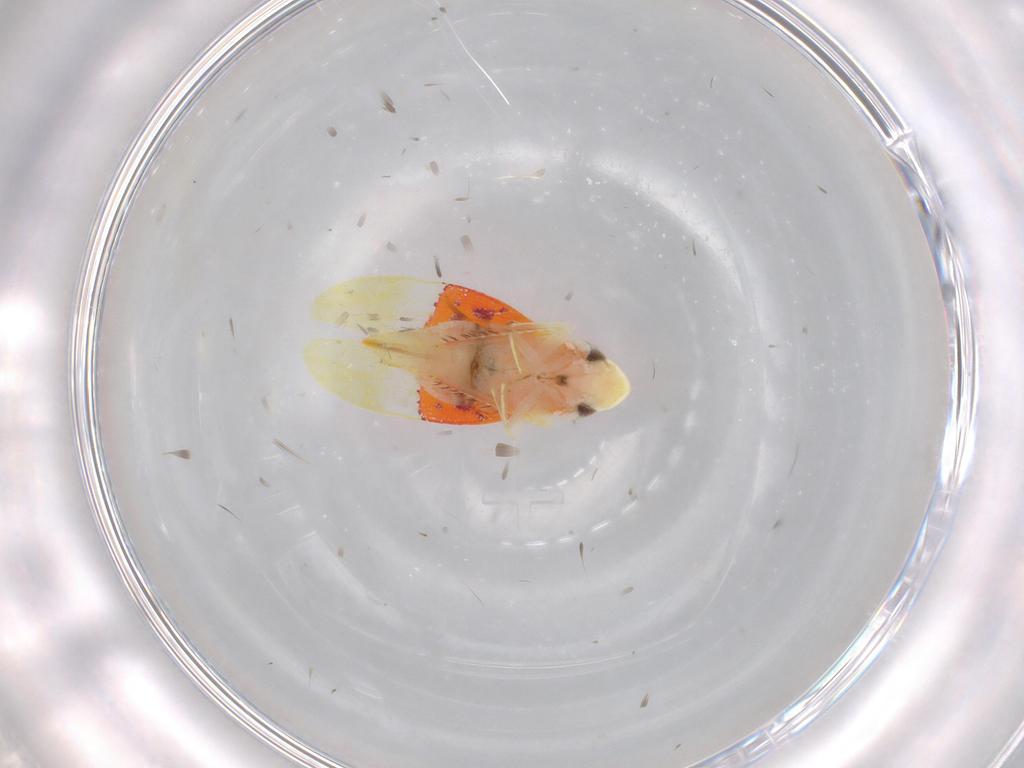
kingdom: Animalia
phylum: Arthropoda
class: Insecta
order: Hemiptera
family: Cicadellidae
